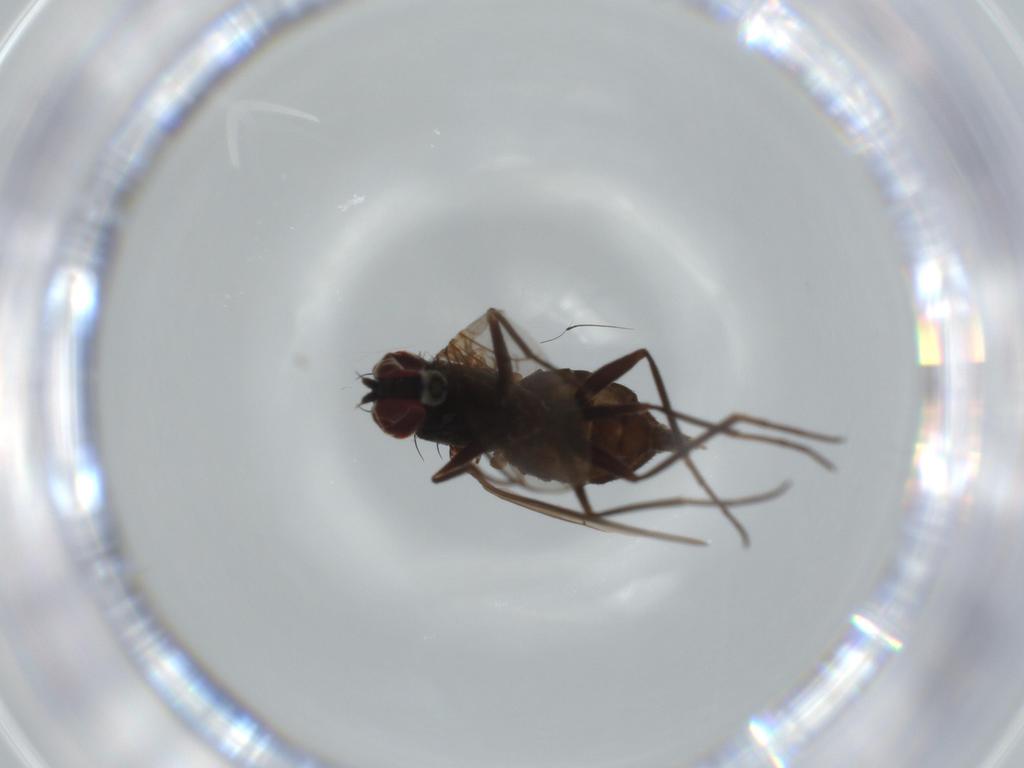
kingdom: Animalia
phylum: Arthropoda
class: Insecta
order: Diptera
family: Dolichopodidae
